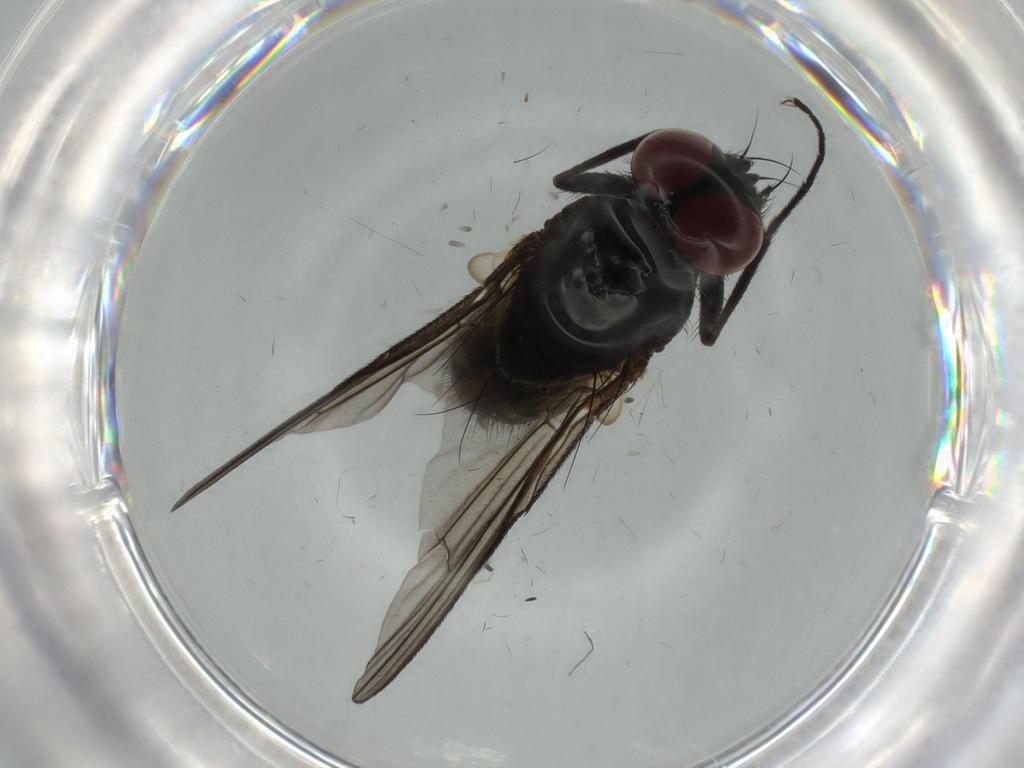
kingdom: Animalia
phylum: Arthropoda
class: Insecta
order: Diptera
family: Muscidae
